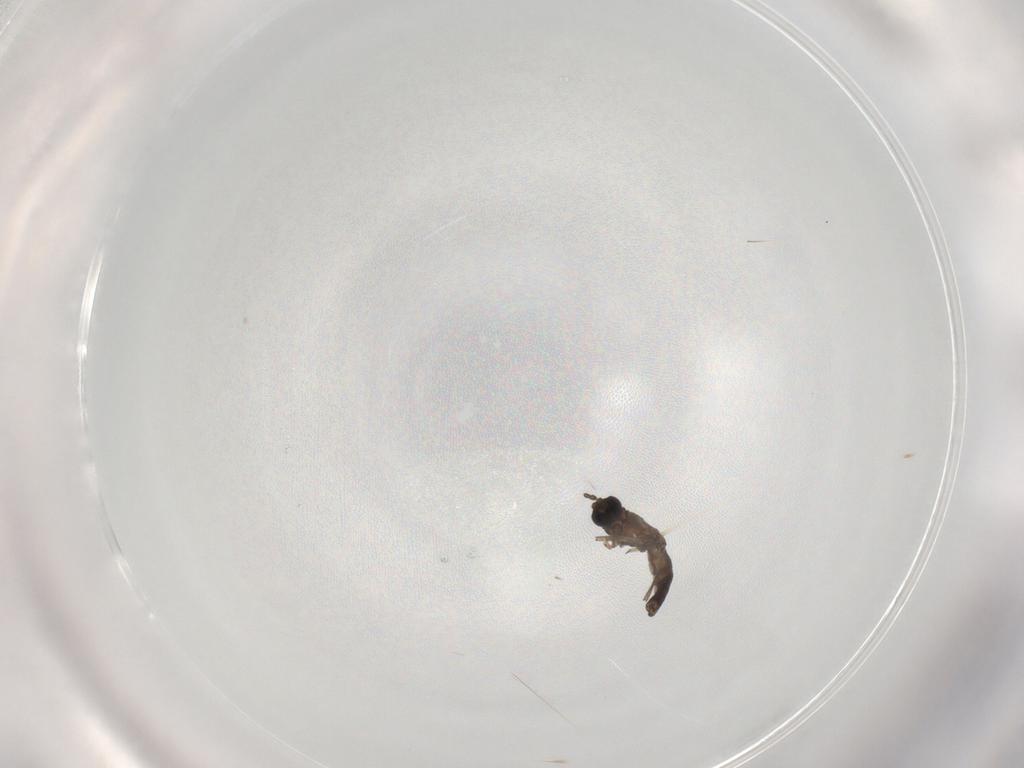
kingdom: Animalia
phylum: Arthropoda
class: Insecta
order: Diptera
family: Sciaridae
